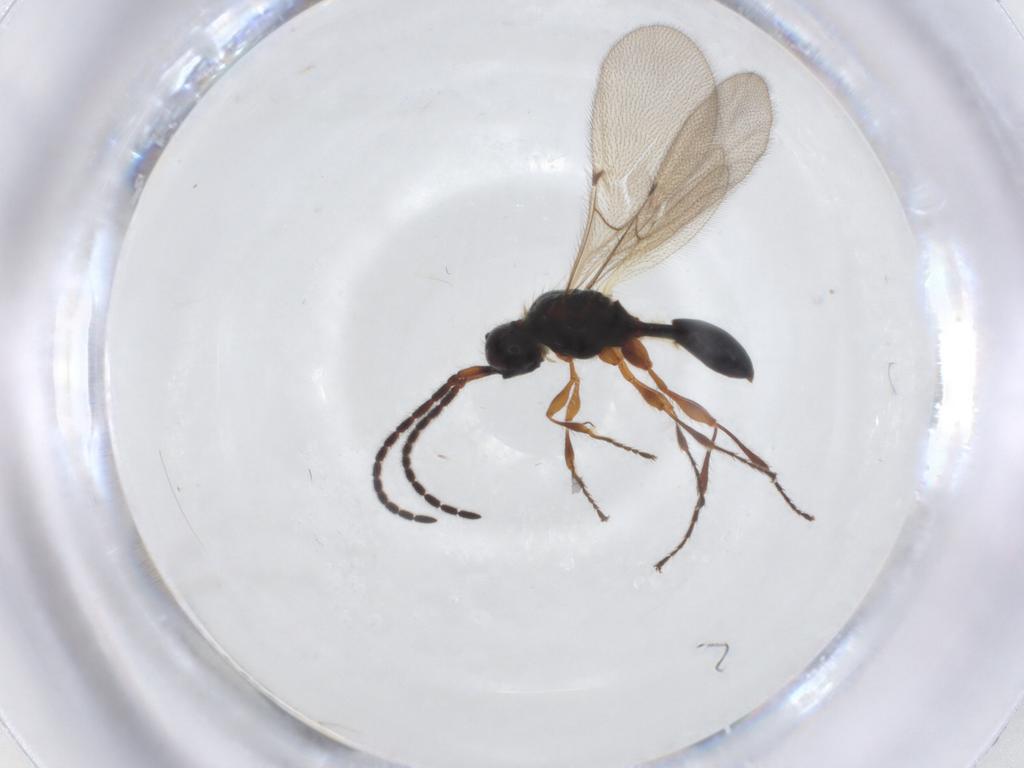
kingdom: Animalia
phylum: Arthropoda
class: Insecta
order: Hymenoptera
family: Diapriidae
